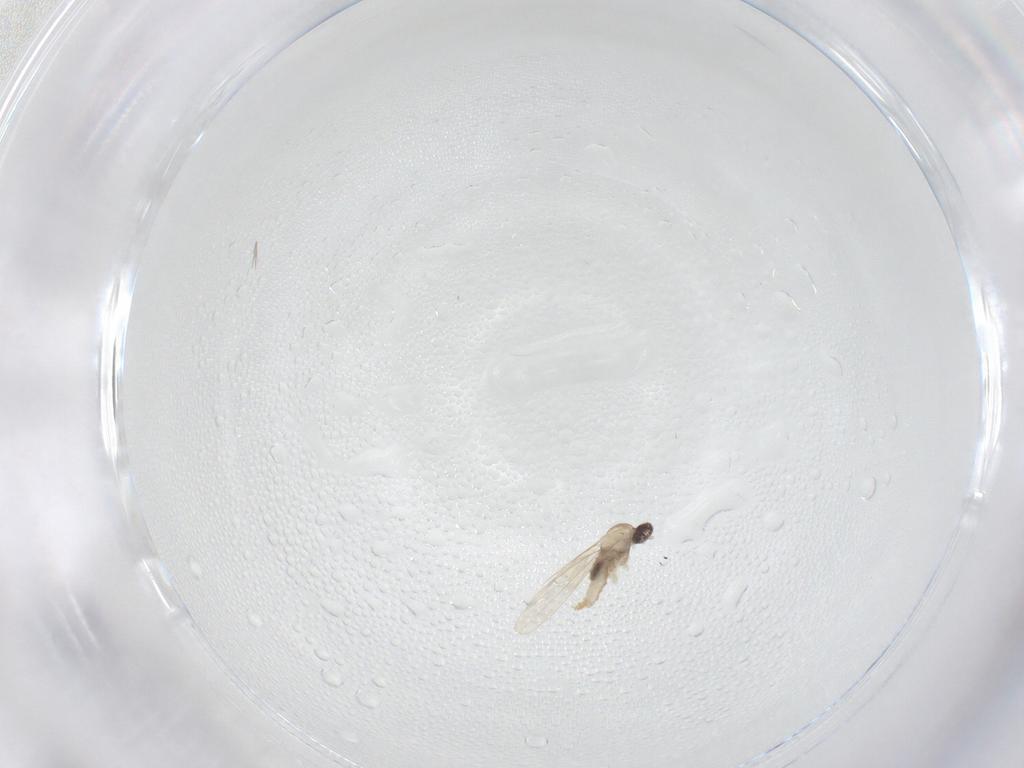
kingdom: Animalia
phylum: Arthropoda
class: Insecta
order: Diptera
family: Cecidomyiidae
